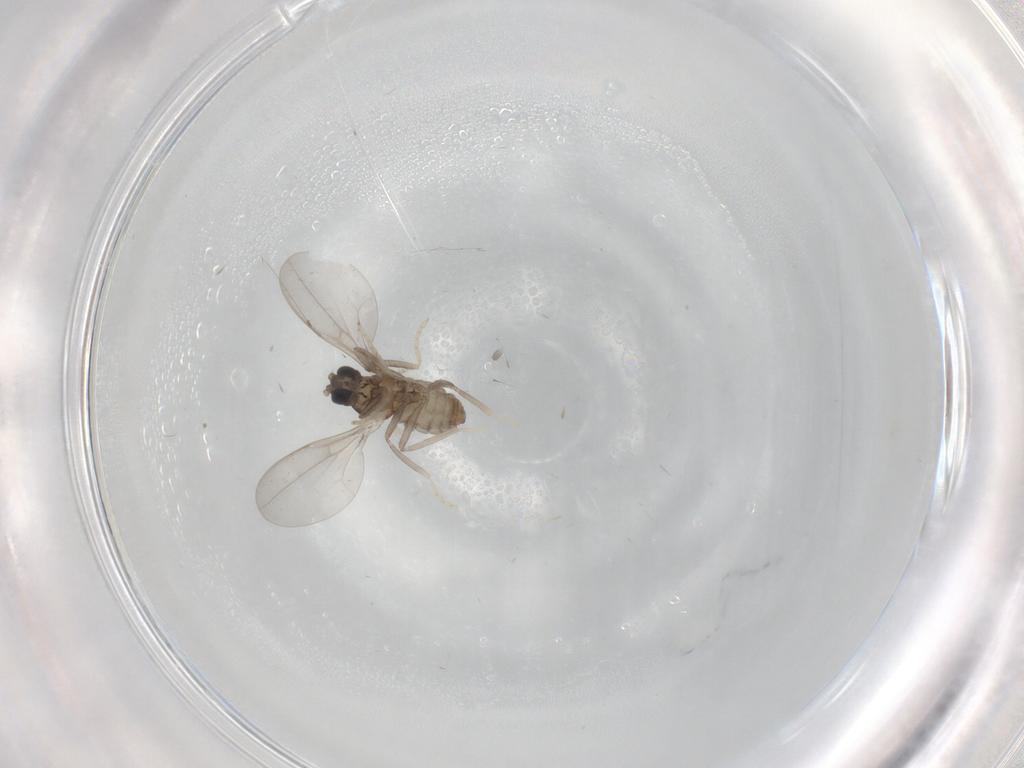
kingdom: Animalia
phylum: Arthropoda
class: Insecta
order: Diptera
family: Cecidomyiidae
